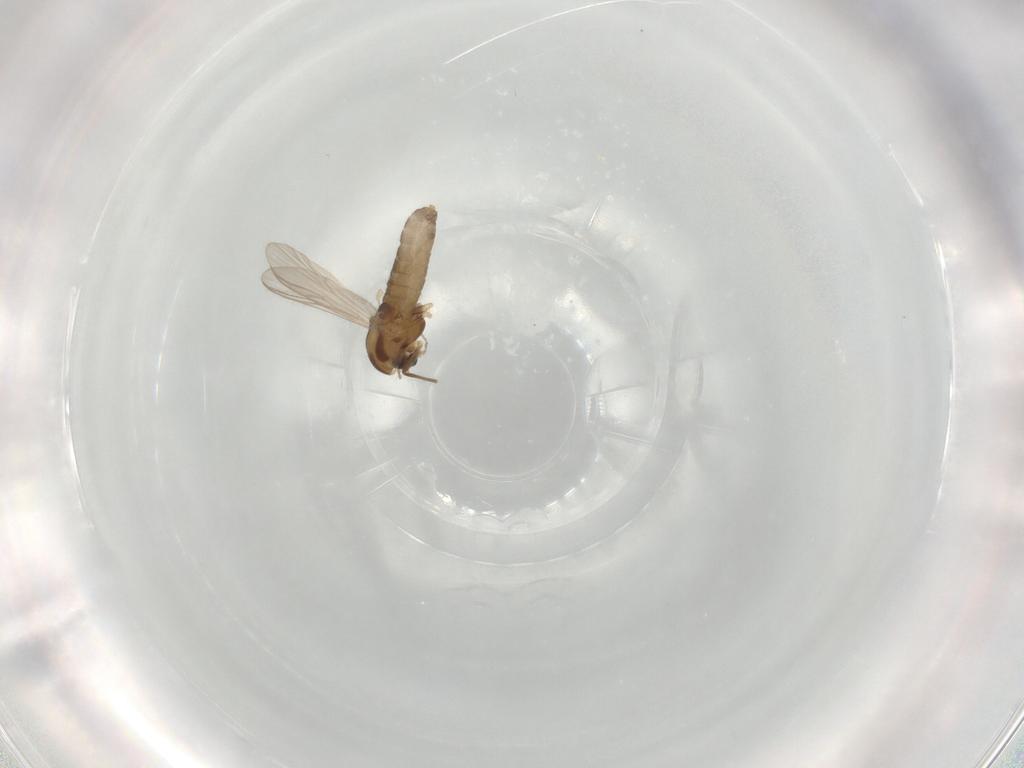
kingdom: Animalia
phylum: Arthropoda
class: Insecta
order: Diptera
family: Chironomidae
